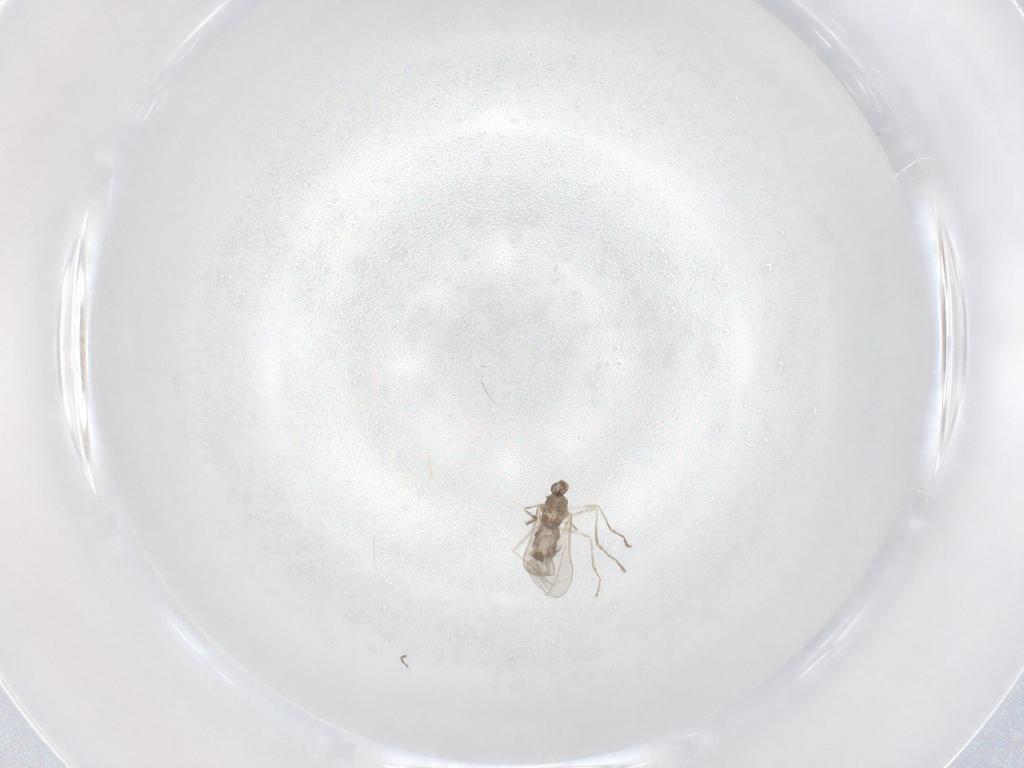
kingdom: Animalia
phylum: Arthropoda
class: Insecta
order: Diptera
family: Cecidomyiidae
